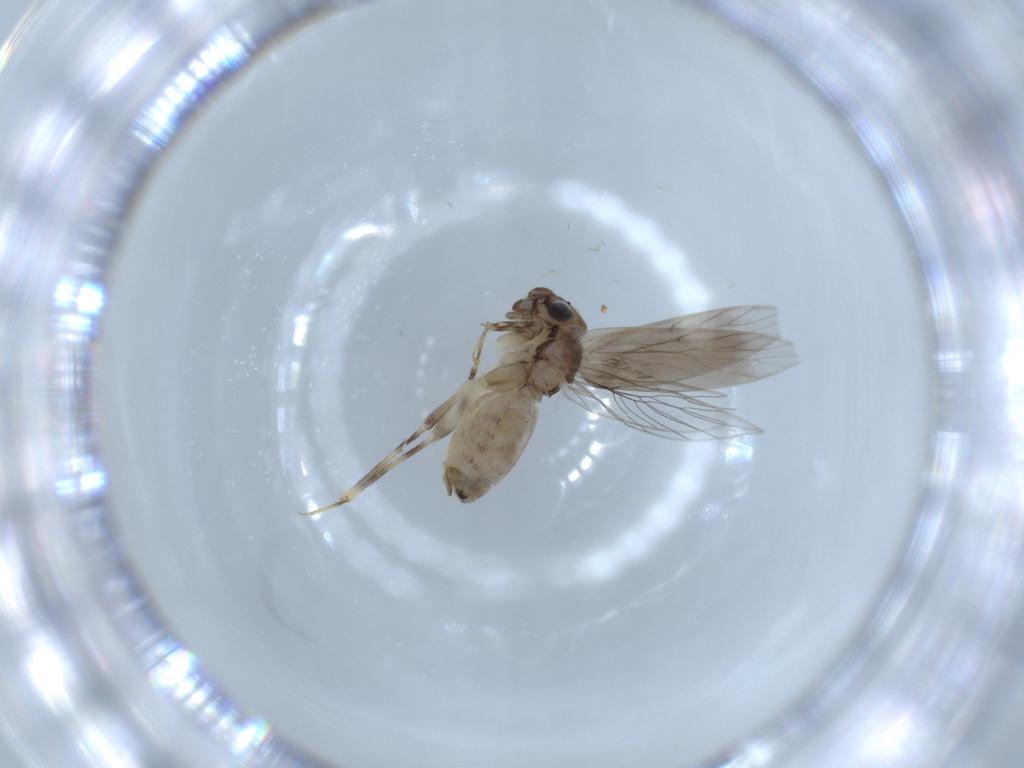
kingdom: Animalia
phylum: Arthropoda
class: Insecta
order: Psocodea
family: Lepidopsocidae
